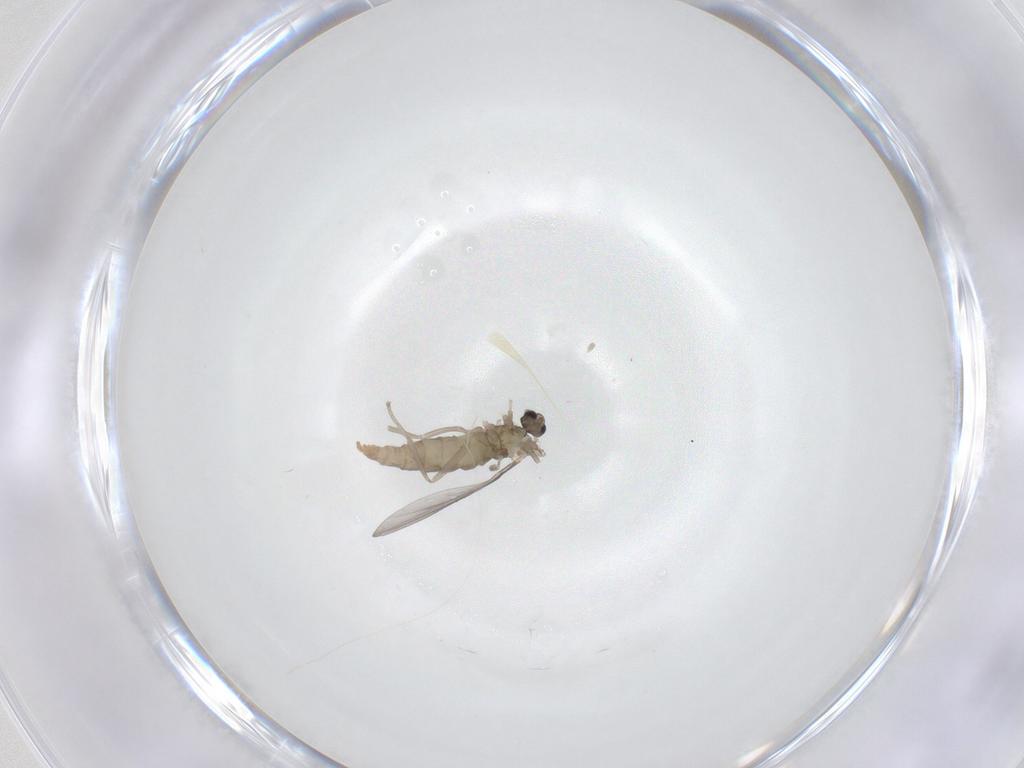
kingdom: Animalia
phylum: Arthropoda
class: Insecta
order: Diptera
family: Cecidomyiidae
